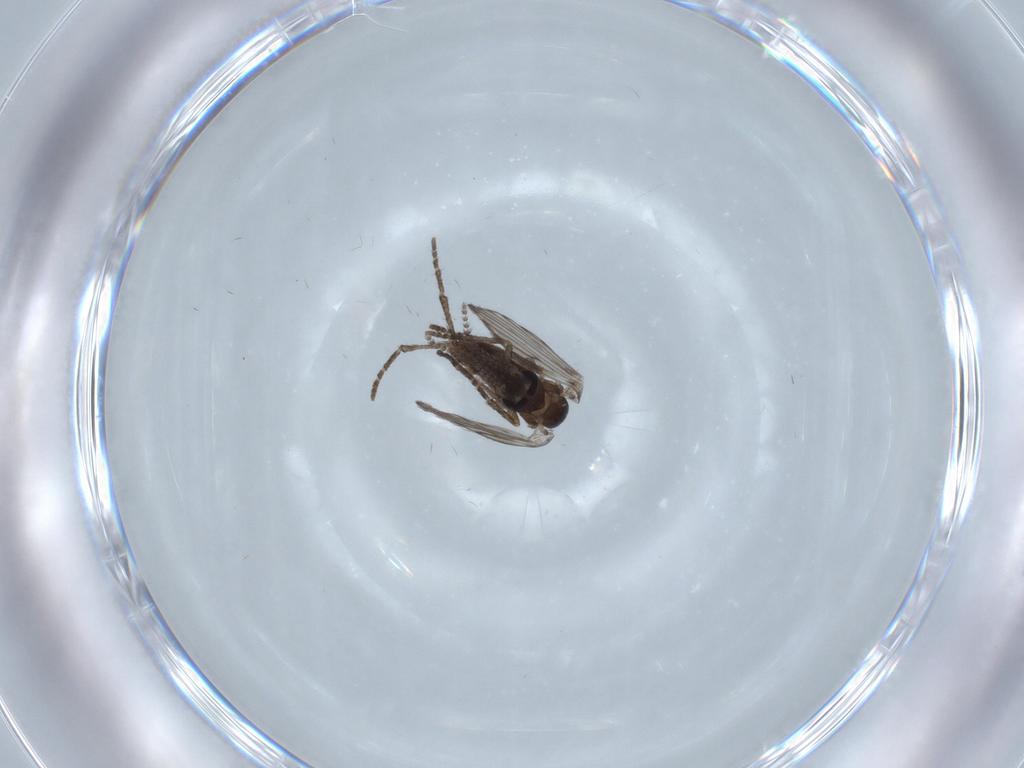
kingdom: Animalia
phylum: Arthropoda
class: Insecta
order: Diptera
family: Psychodidae
